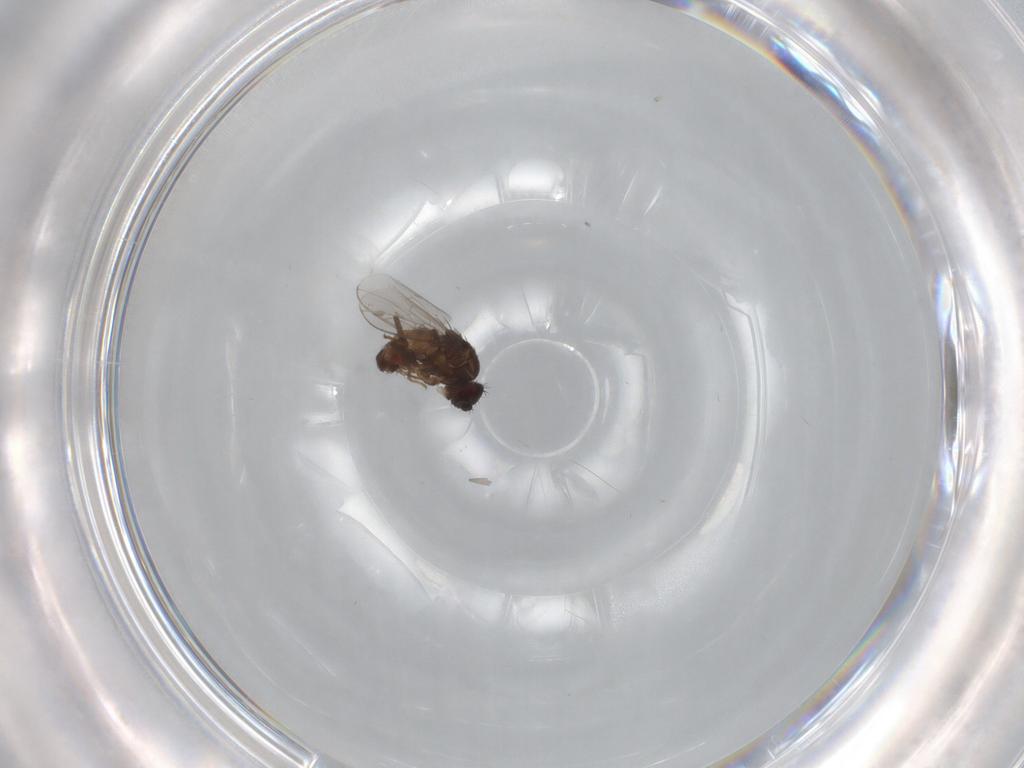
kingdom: Animalia
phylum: Arthropoda
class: Insecta
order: Diptera
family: Sphaeroceridae
